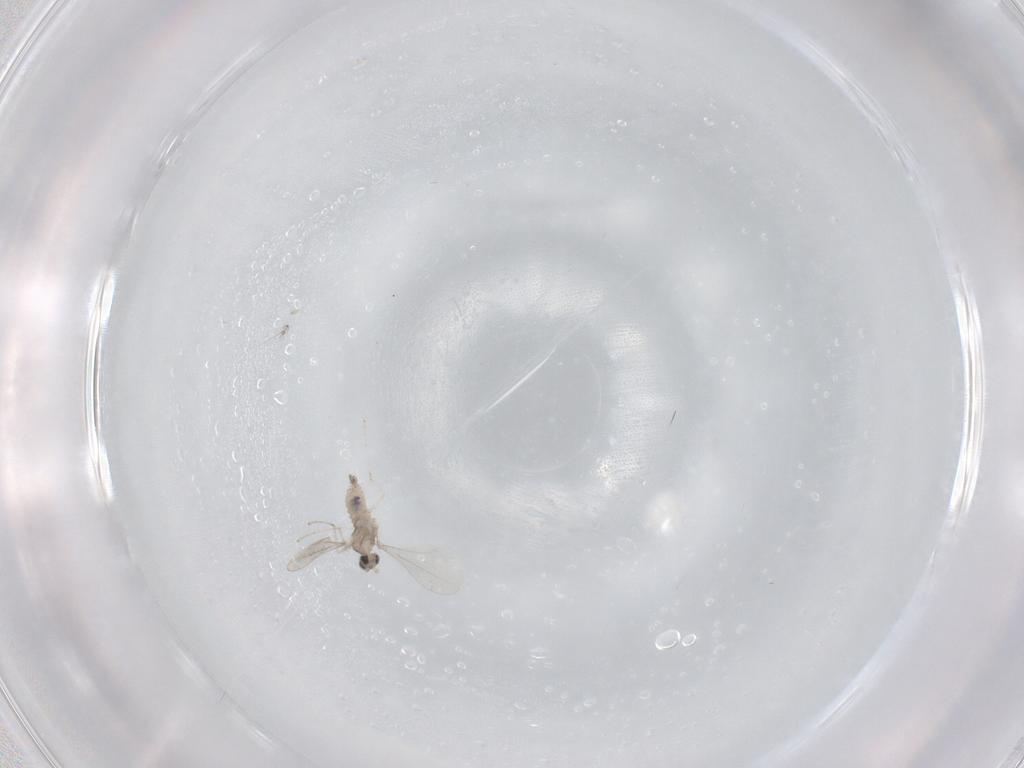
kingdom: Animalia
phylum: Arthropoda
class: Insecta
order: Diptera
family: Cecidomyiidae
